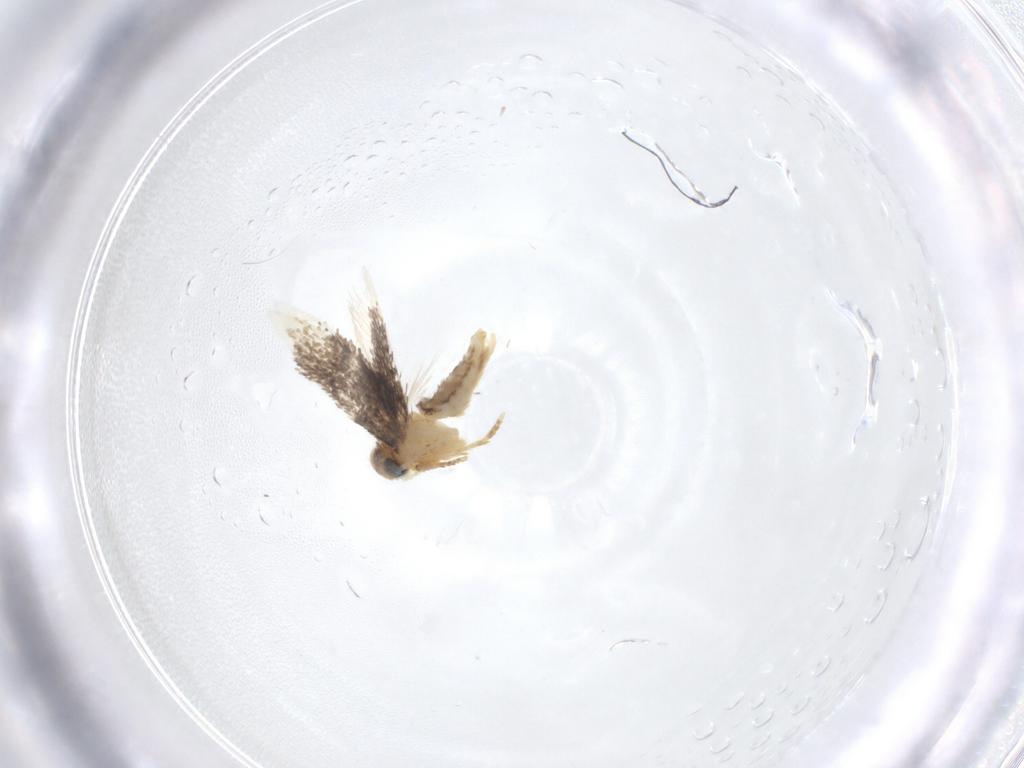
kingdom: Animalia
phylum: Arthropoda
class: Insecta
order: Lepidoptera
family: Nepticulidae
